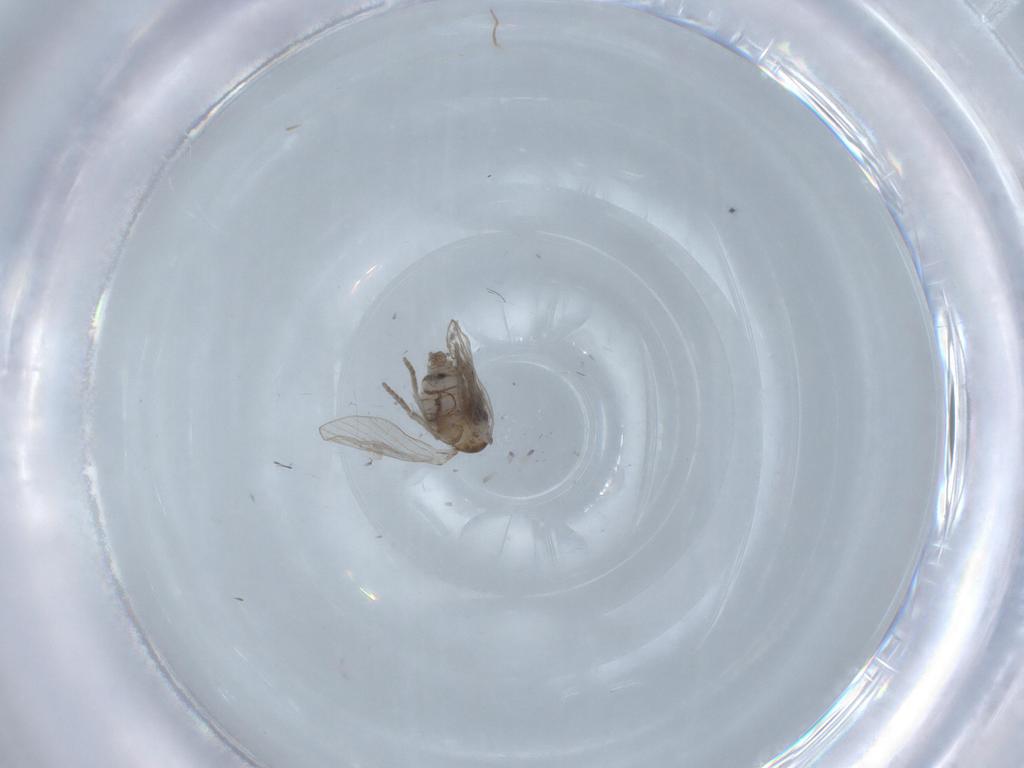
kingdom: Animalia
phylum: Arthropoda
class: Insecta
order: Diptera
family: Psychodidae
